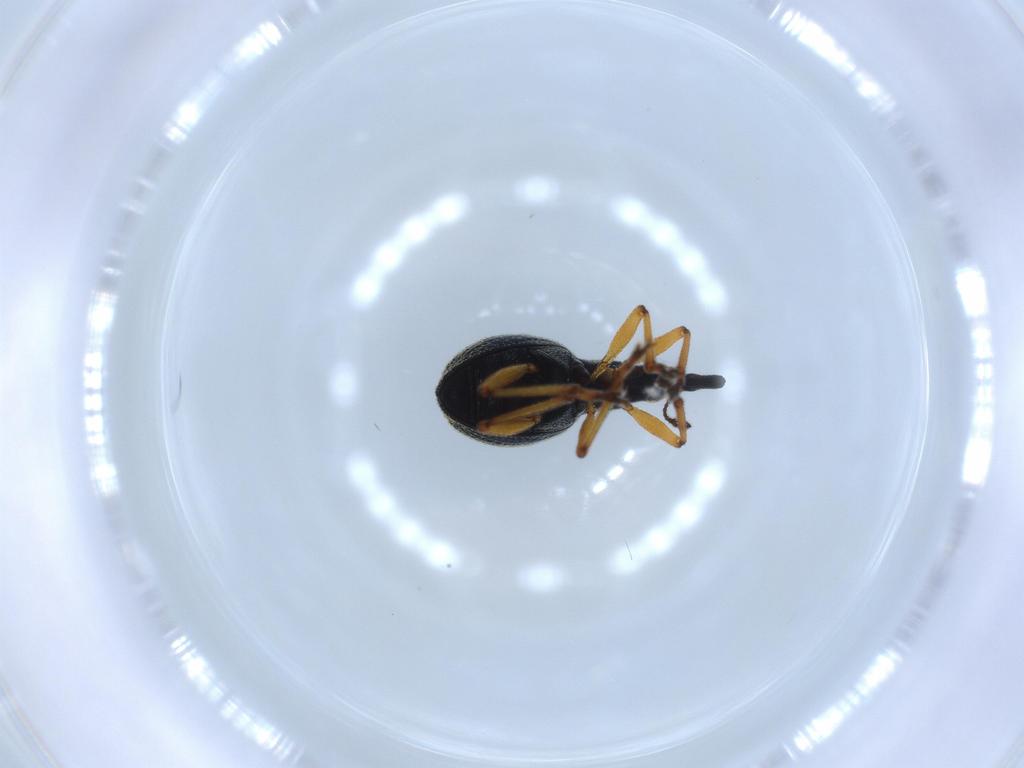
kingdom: Animalia
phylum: Arthropoda
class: Insecta
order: Coleoptera
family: Brentidae
